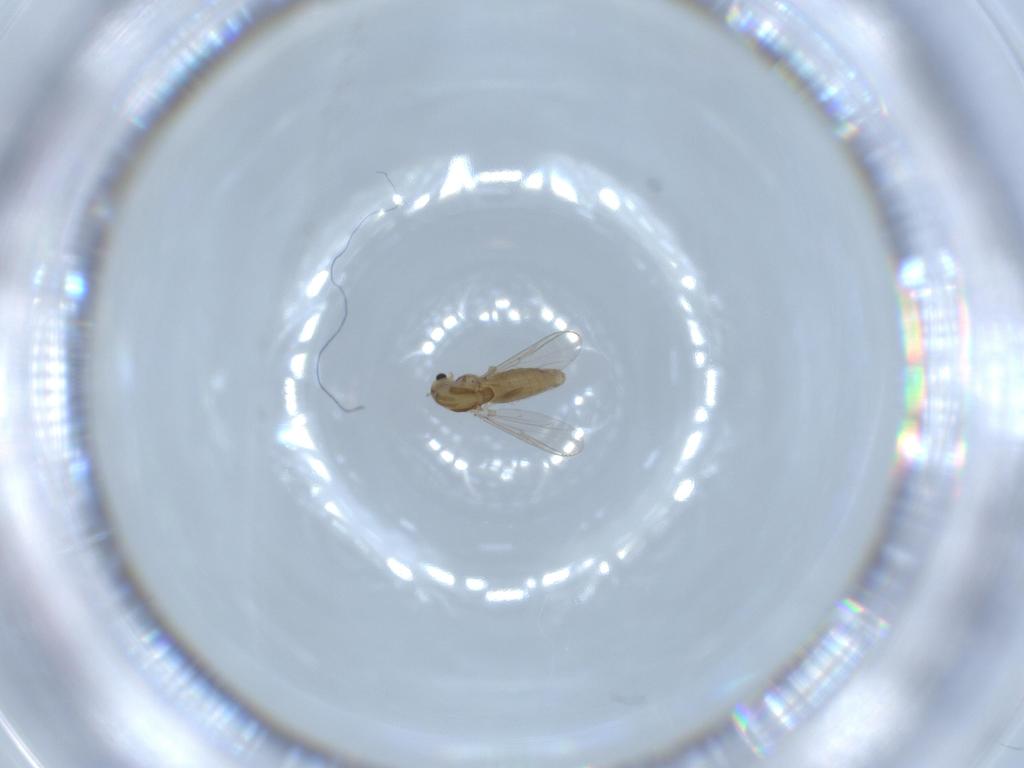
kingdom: Animalia
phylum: Arthropoda
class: Insecta
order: Diptera
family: Chironomidae
